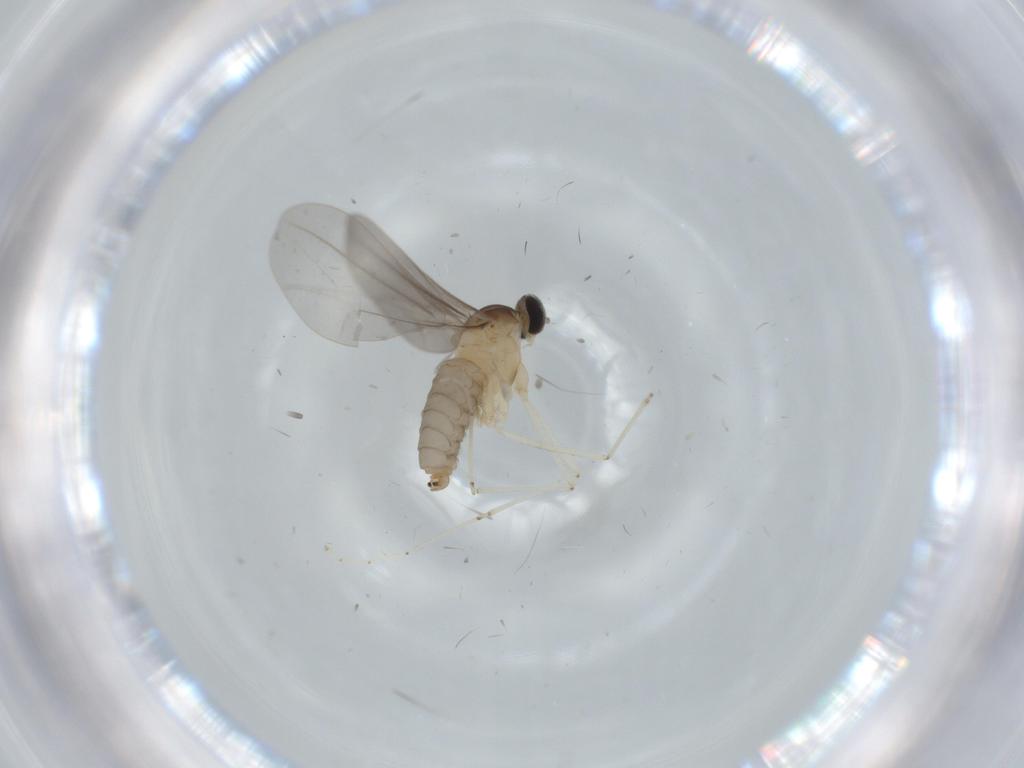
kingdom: Animalia
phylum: Arthropoda
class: Insecta
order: Diptera
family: Cecidomyiidae
